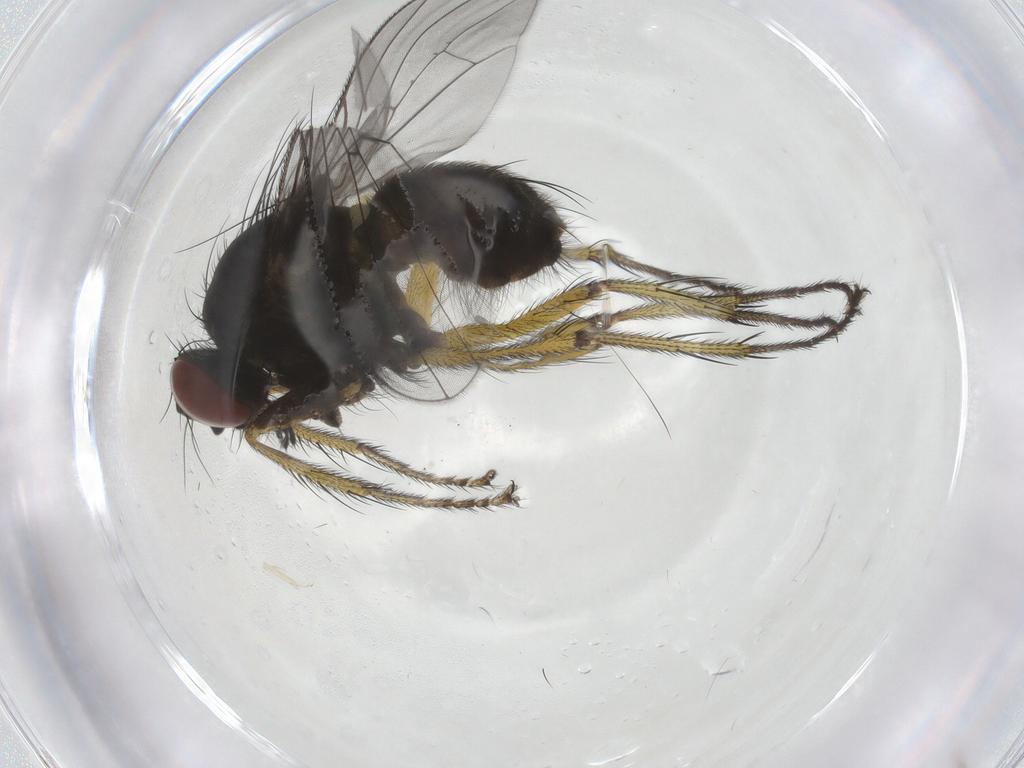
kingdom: Animalia
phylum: Arthropoda
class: Insecta
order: Diptera
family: Muscidae
